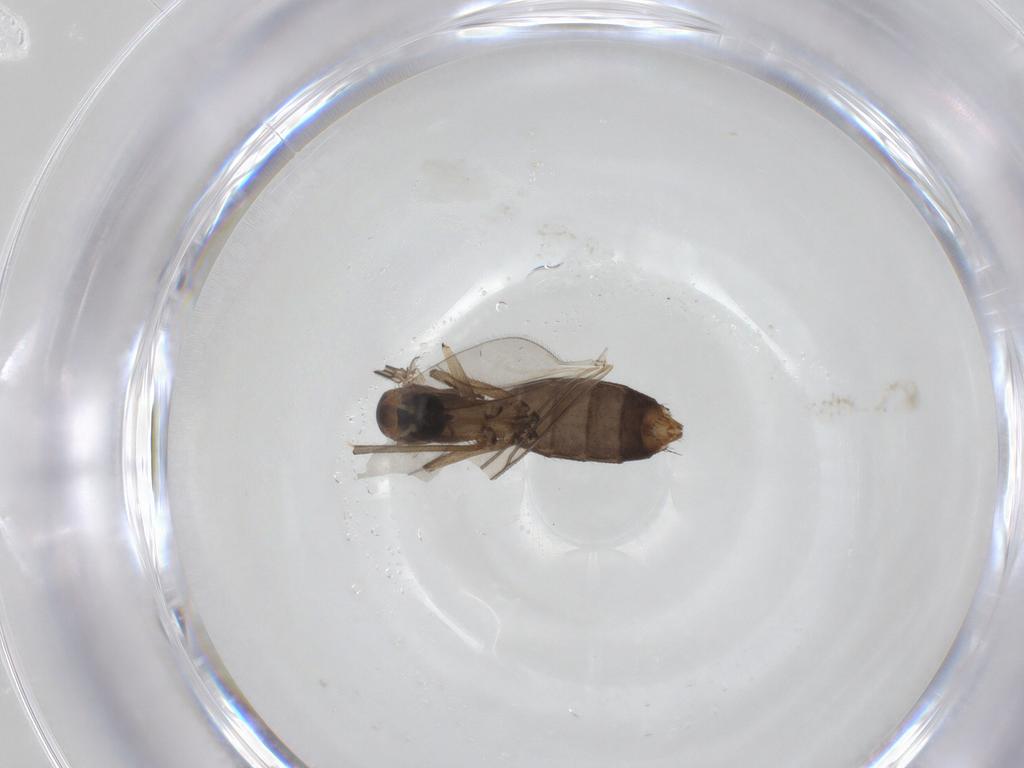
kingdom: Animalia
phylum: Arthropoda
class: Insecta
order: Diptera
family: Mycetophilidae
